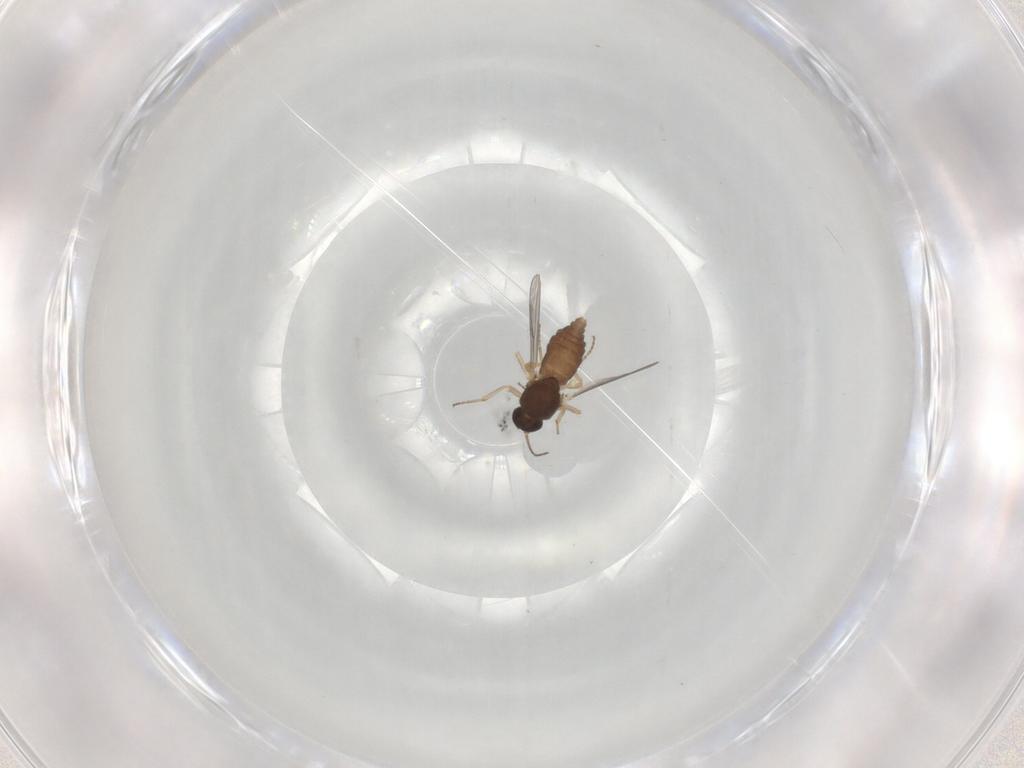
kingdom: Animalia
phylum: Arthropoda
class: Insecta
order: Diptera
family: Ceratopogonidae
